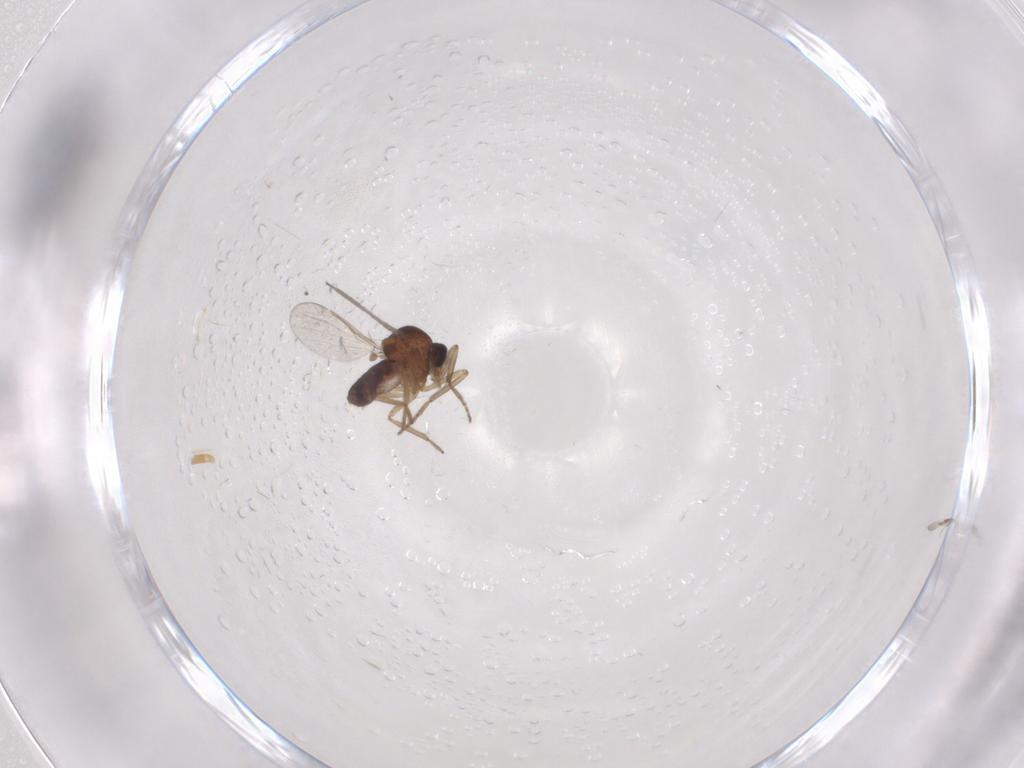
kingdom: Animalia
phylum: Arthropoda
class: Insecta
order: Diptera
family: Ceratopogonidae
